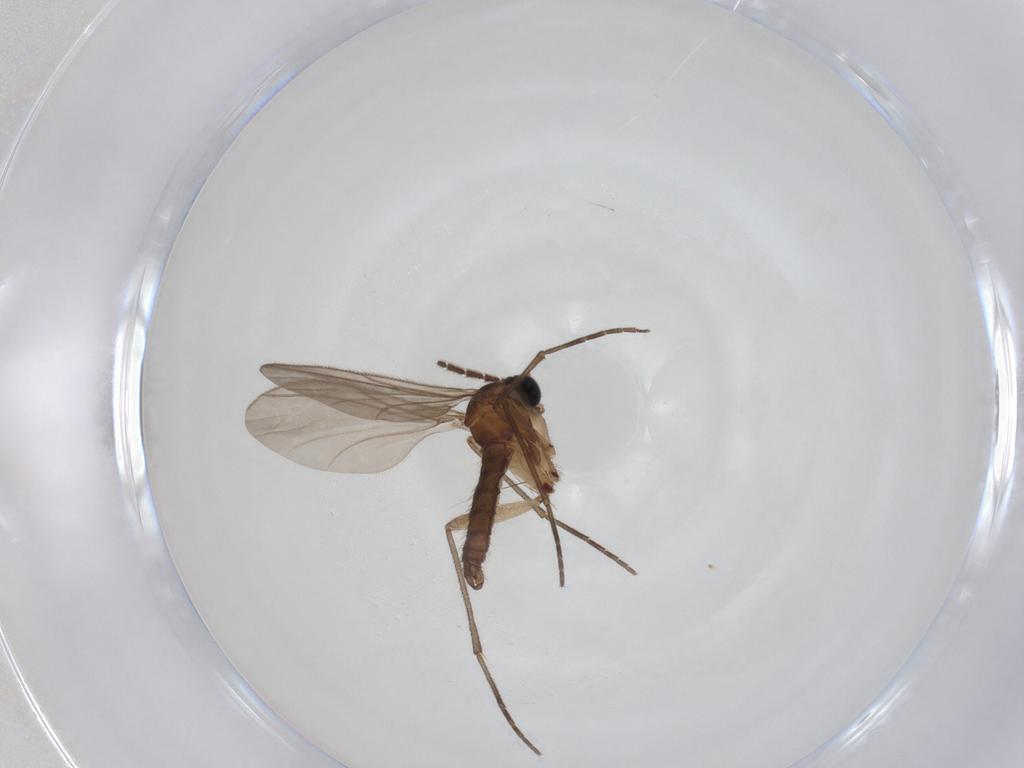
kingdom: Animalia
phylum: Arthropoda
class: Insecta
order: Diptera
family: Sciaridae
